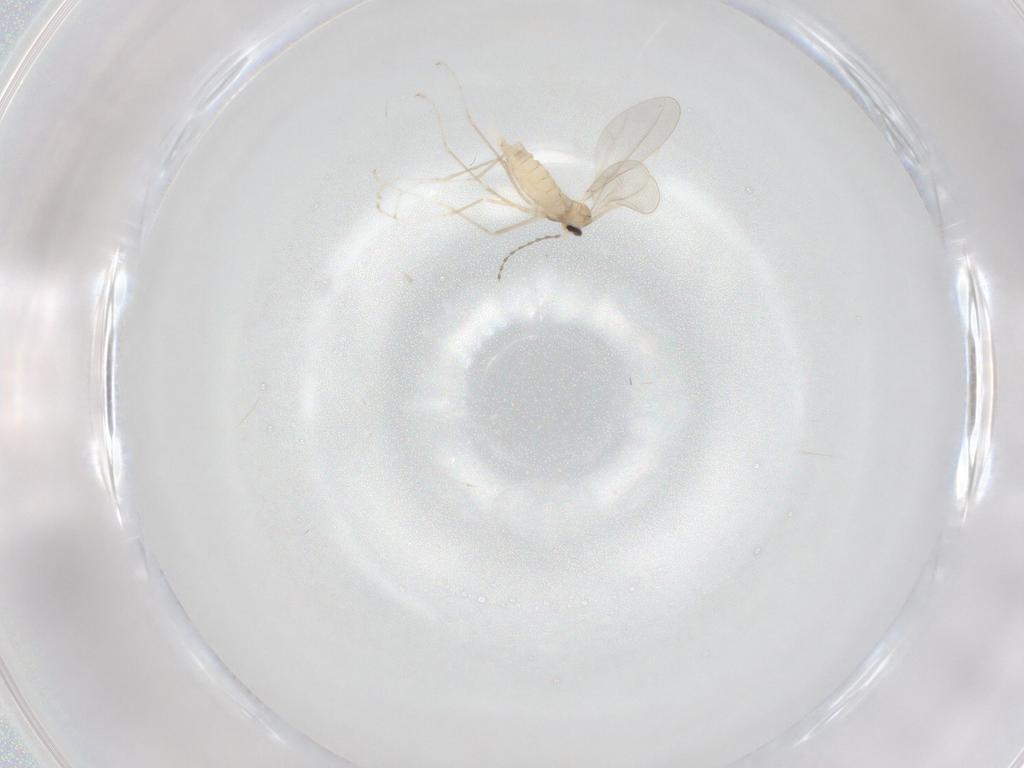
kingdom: Animalia
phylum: Arthropoda
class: Insecta
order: Diptera
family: Cecidomyiidae
